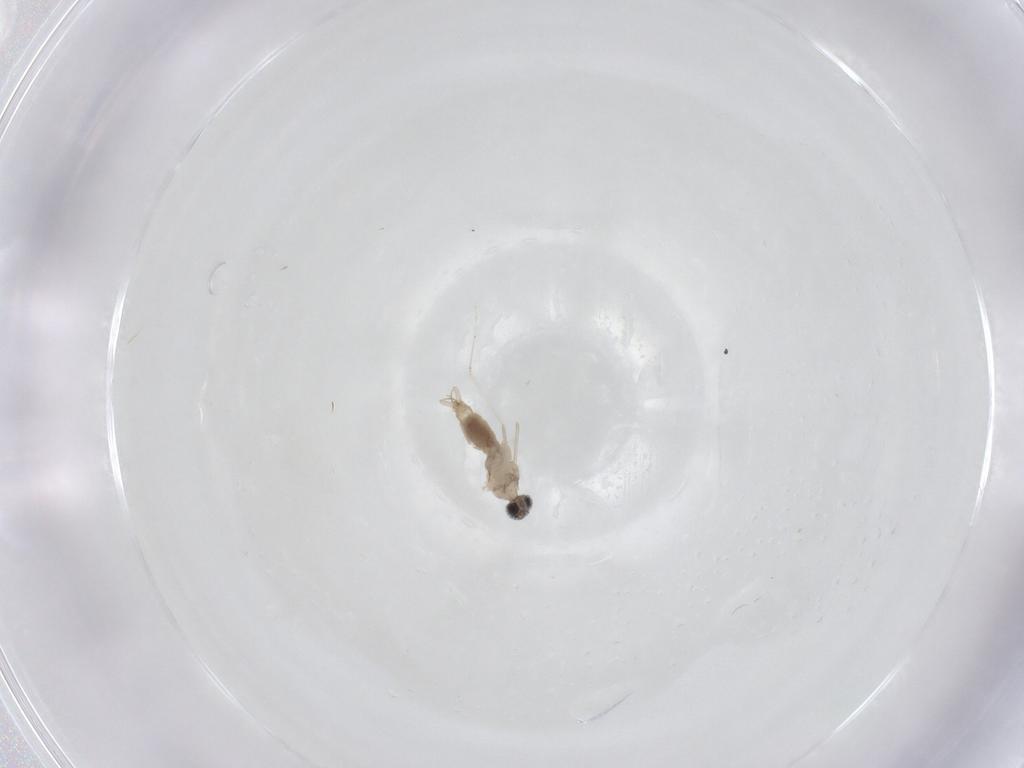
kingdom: Animalia
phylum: Arthropoda
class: Insecta
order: Diptera
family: Cecidomyiidae
